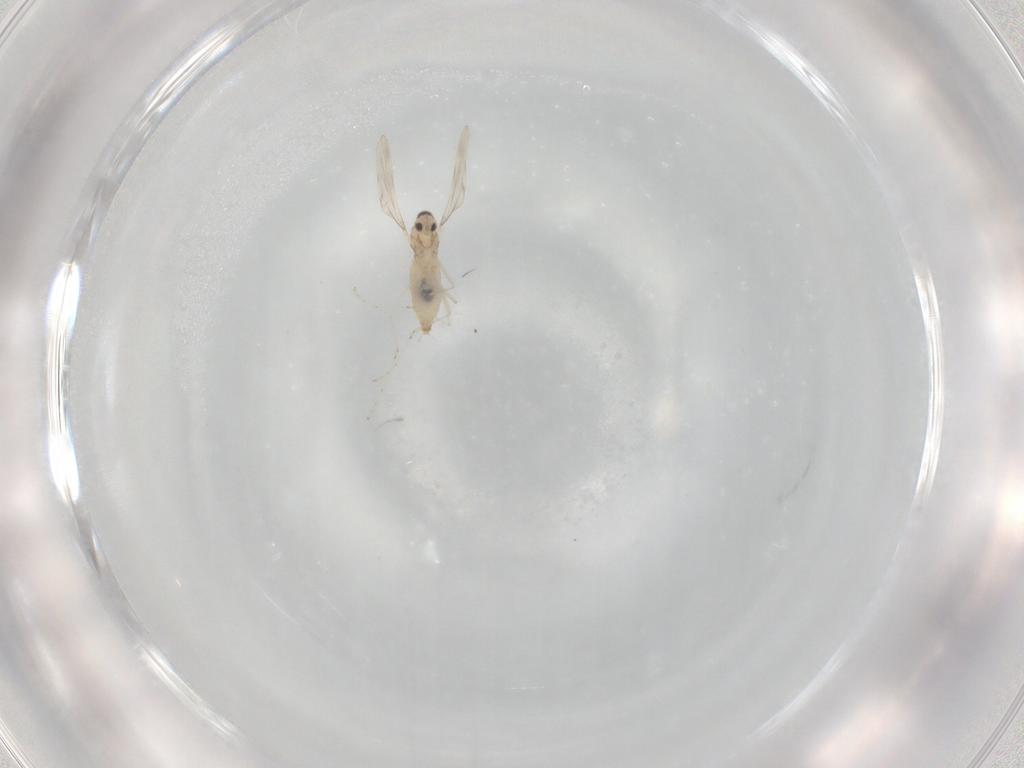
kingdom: Animalia
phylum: Arthropoda
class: Insecta
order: Diptera
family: Cecidomyiidae
